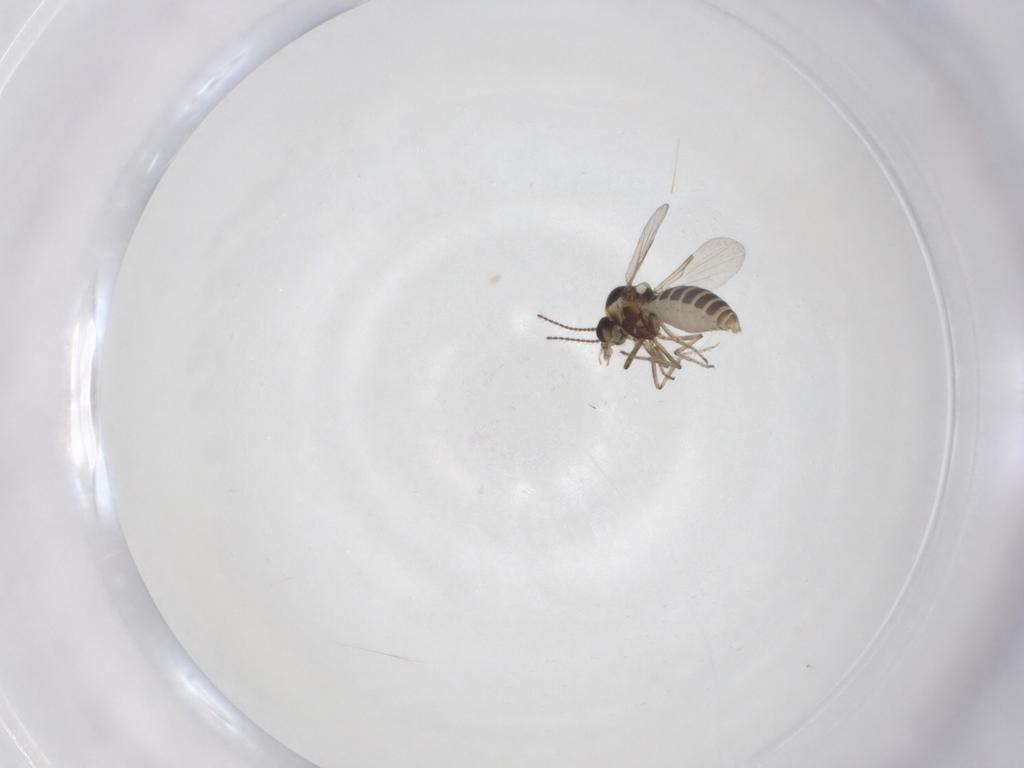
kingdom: Animalia
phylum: Arthropoda
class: Insecta
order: Diptera
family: Ceratopogonidae
